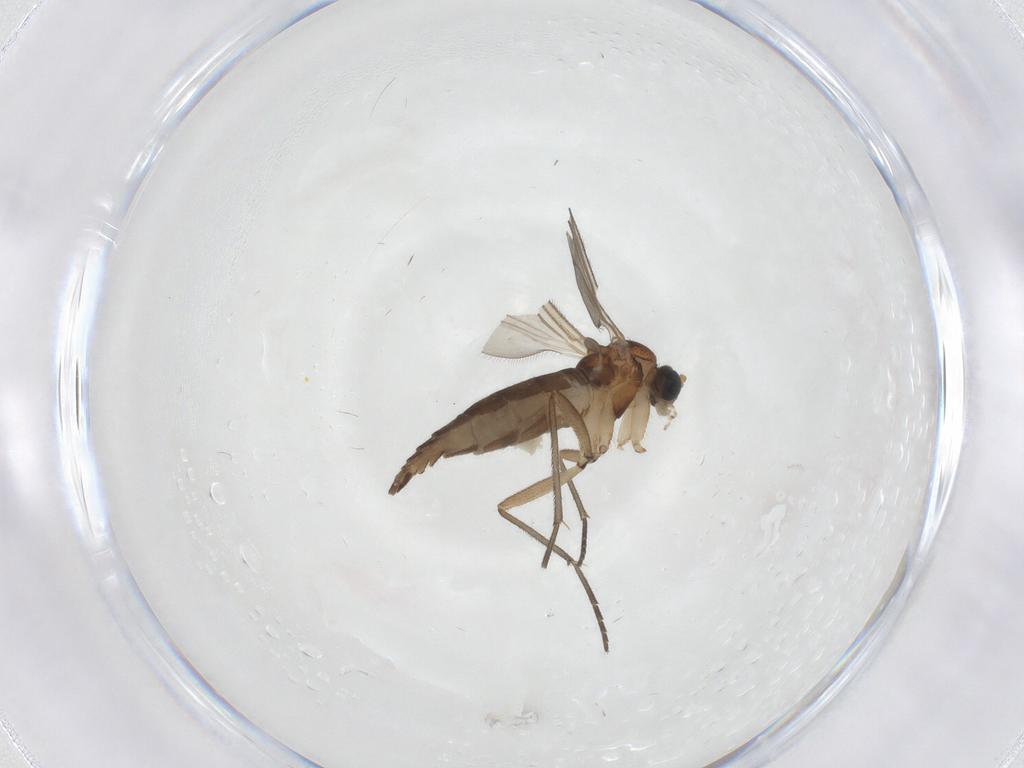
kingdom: Animalia
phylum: Arthropoda
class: Insecta
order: Diptera
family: Sciaridae
